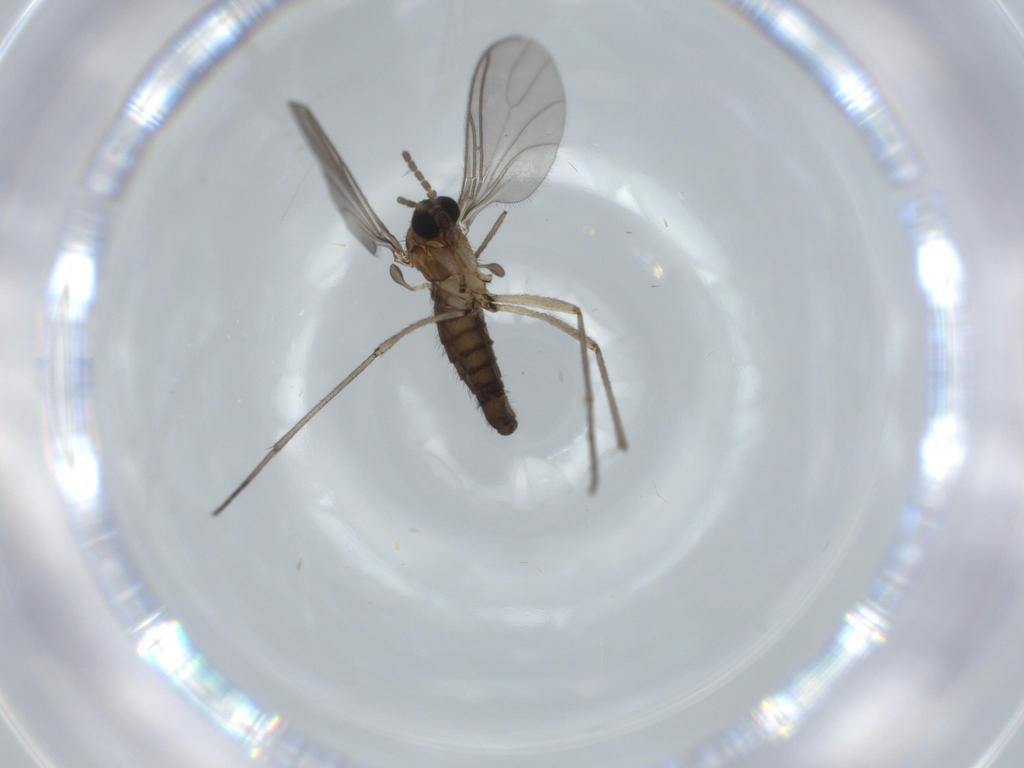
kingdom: Animalia
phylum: Arthropoda
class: Insecta
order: Diptera
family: Sciaridae
